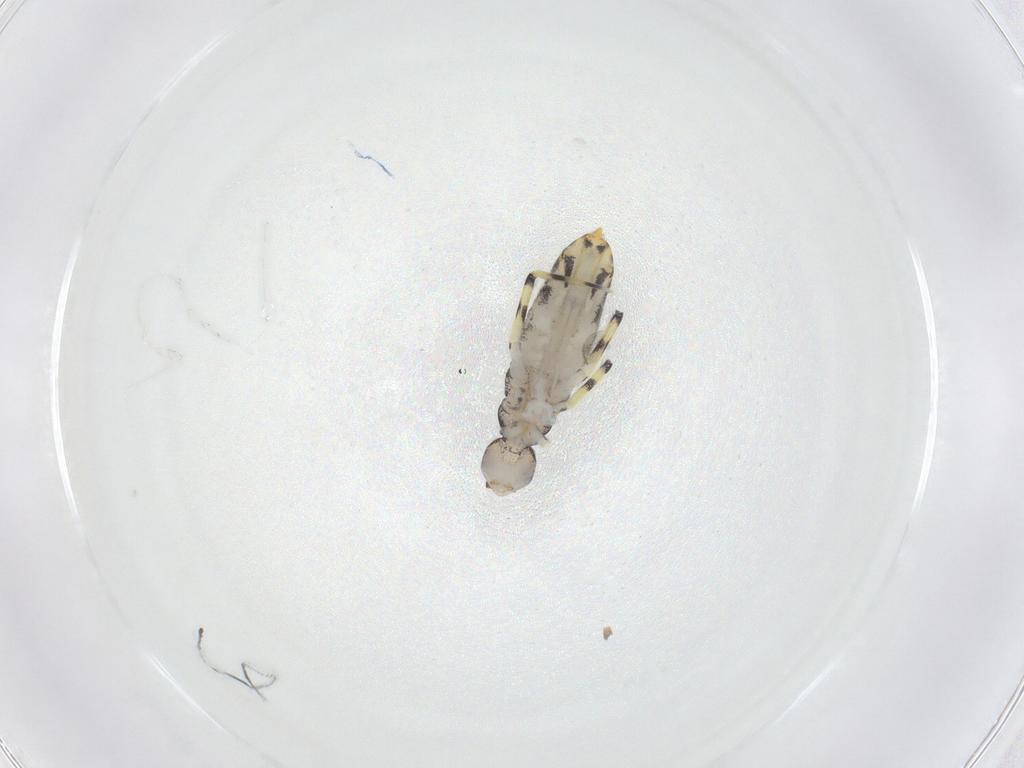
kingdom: Animalia
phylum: Arthropoda
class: Collembola
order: Entomobryomorpha
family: Entomobryidae
